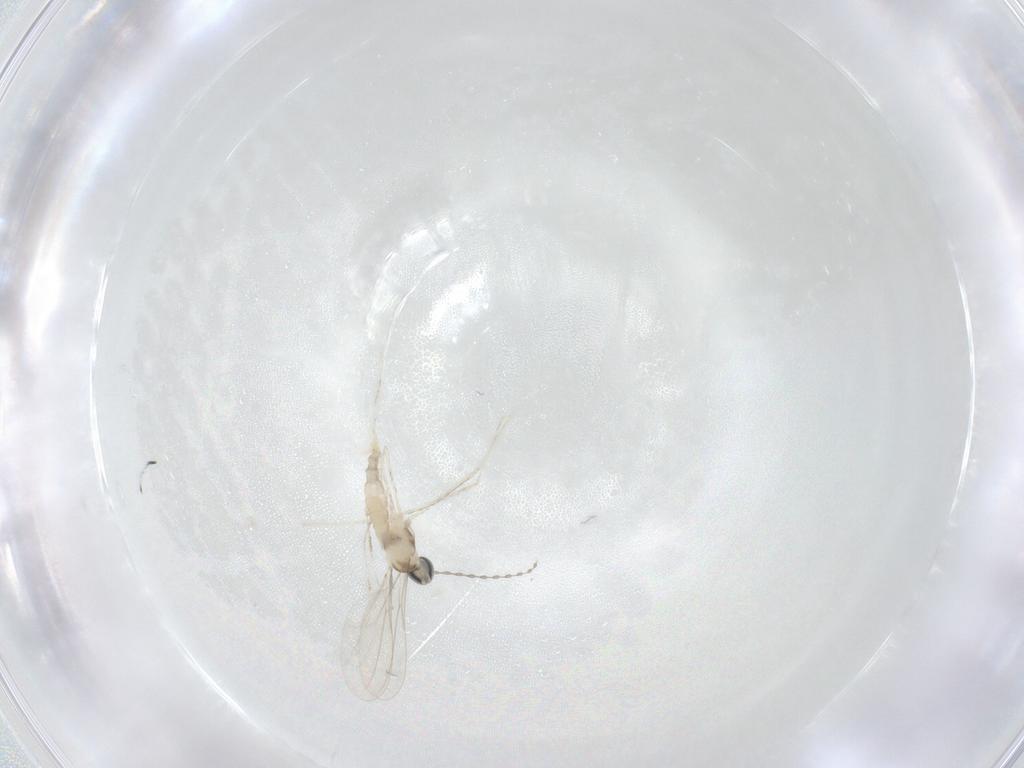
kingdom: Animalia
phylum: Arthropoda
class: Insecta
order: Diptera
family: Cecidomyiidae
